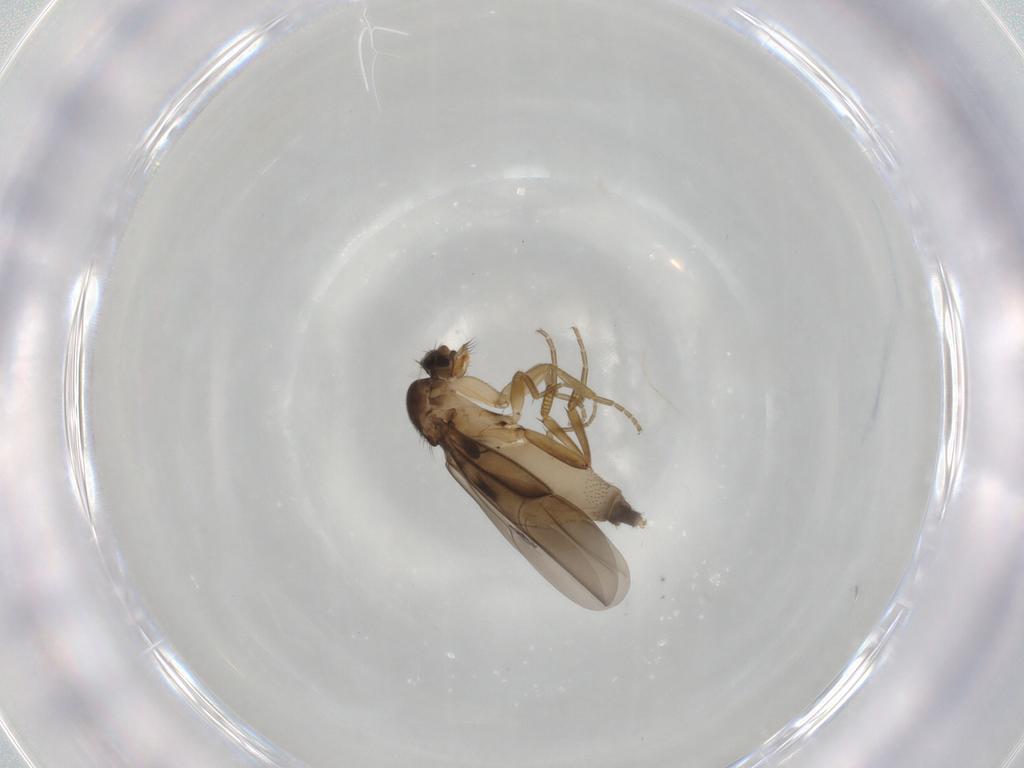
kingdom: Animalia
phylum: Arthropoda
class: Insecta
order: Diptera
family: Phoridae
